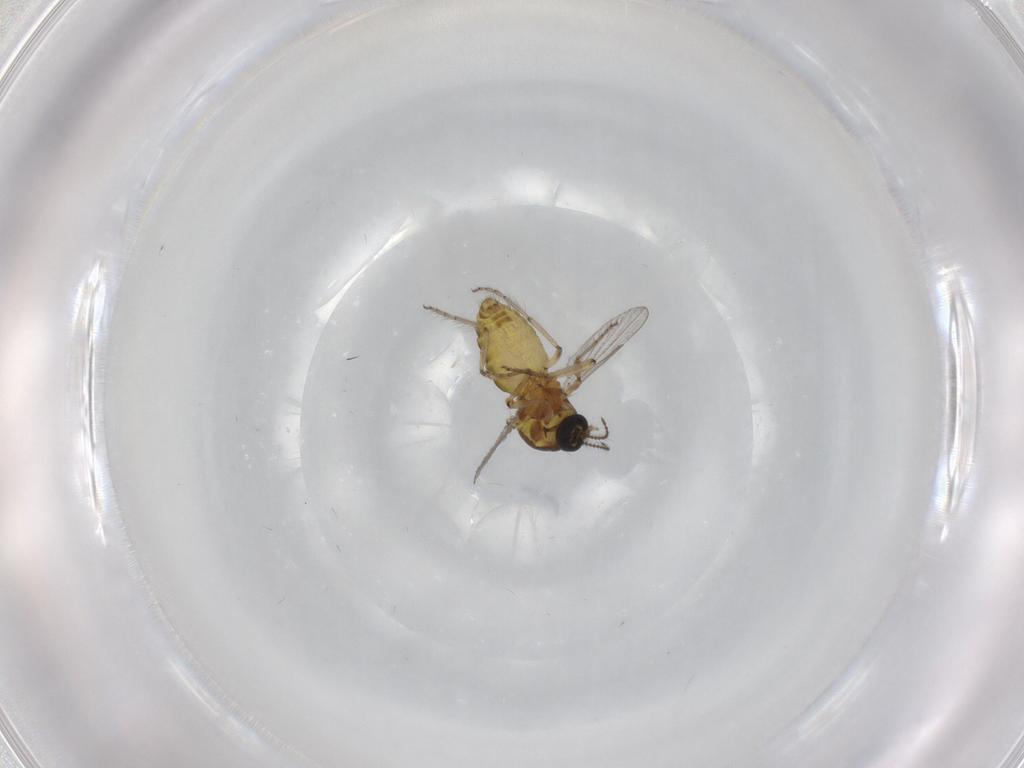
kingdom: Animalia
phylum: Arthropoda
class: Insecta
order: Diptera
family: Ceratopogonidae
